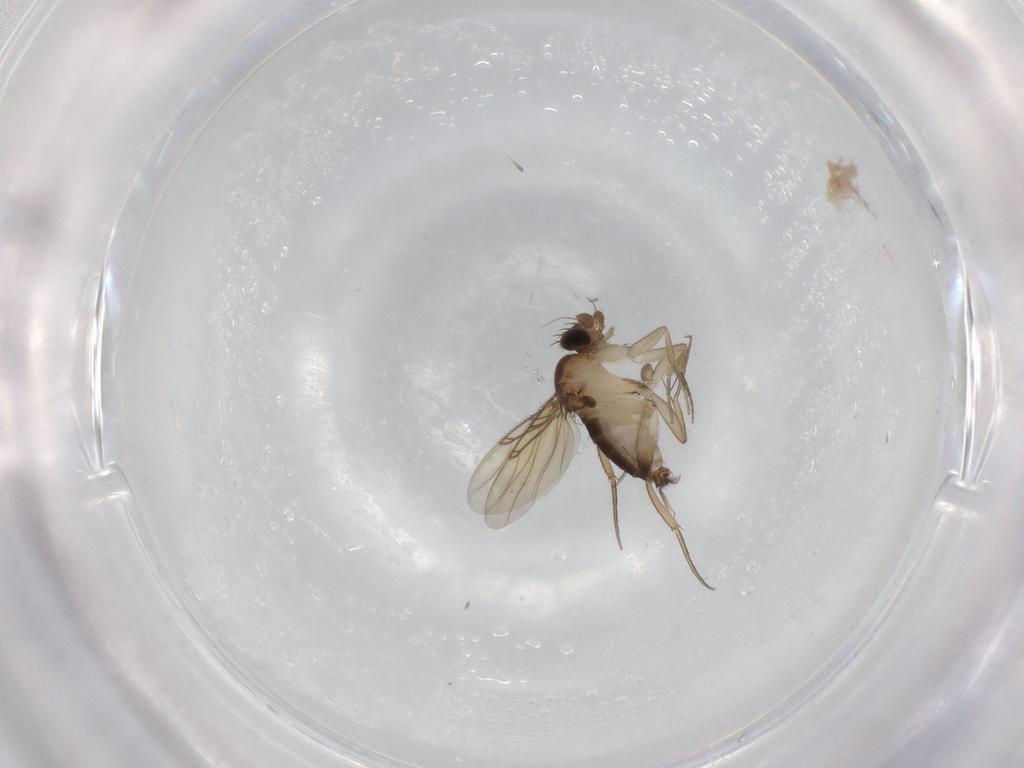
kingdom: Animalia
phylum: Arthropoda
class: Insecta
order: Diptera
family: Phoridae
